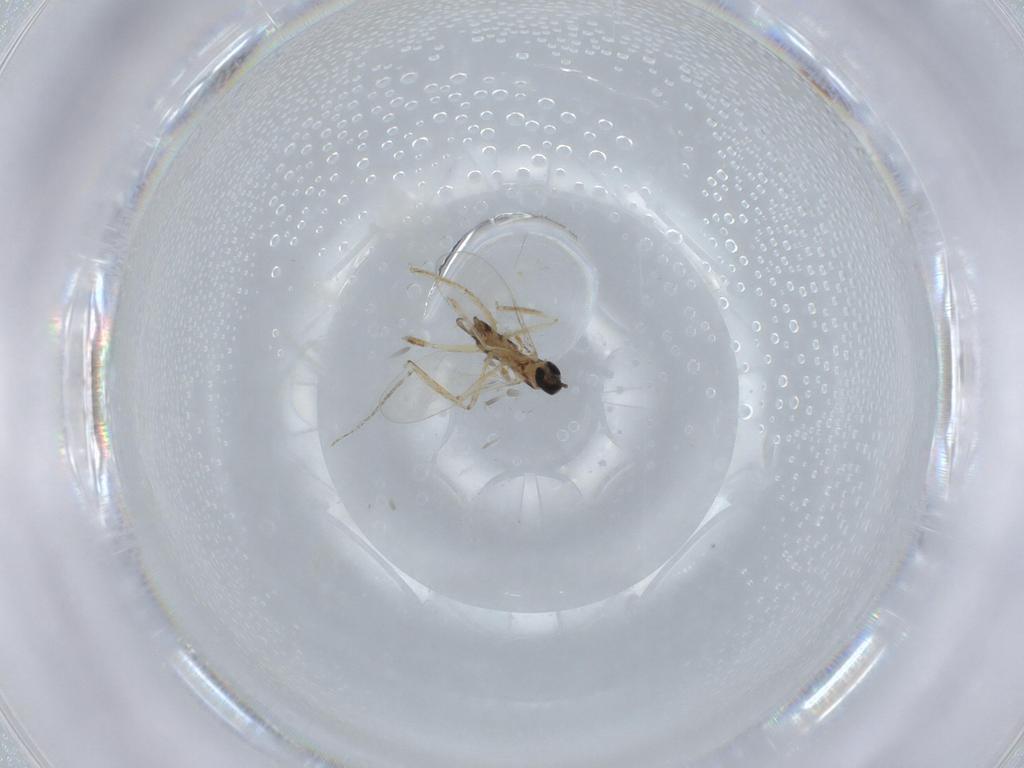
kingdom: Animalia
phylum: Arthropoda
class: Insecta
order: Diptera
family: Cecidomyiidae
